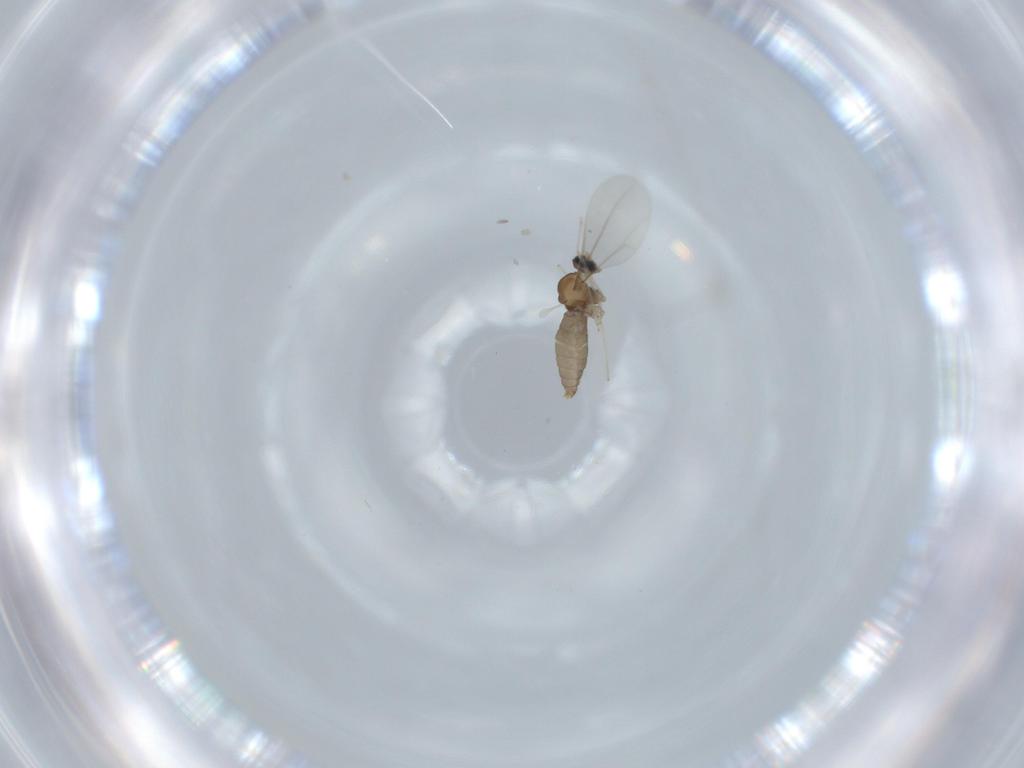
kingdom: Animalia
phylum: Arthropoda
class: Insecta
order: Diptera
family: Cecidomyiidae
